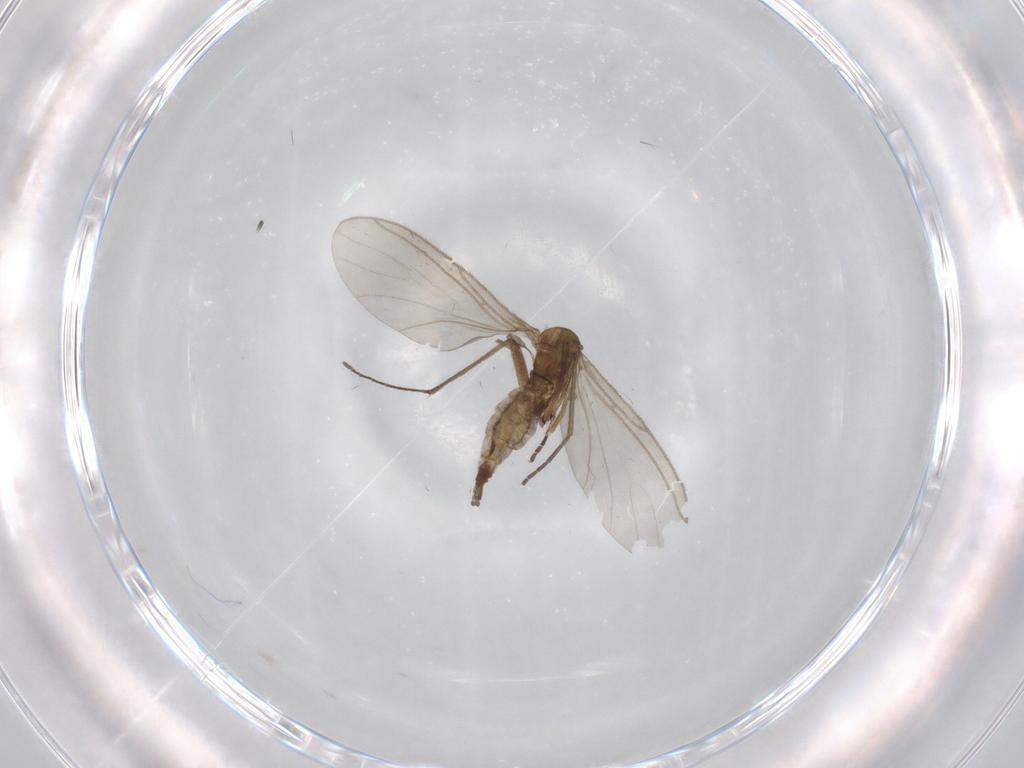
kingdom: Animalia
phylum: Arthropoda
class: Insecta
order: Diptera
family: Sciaridae
